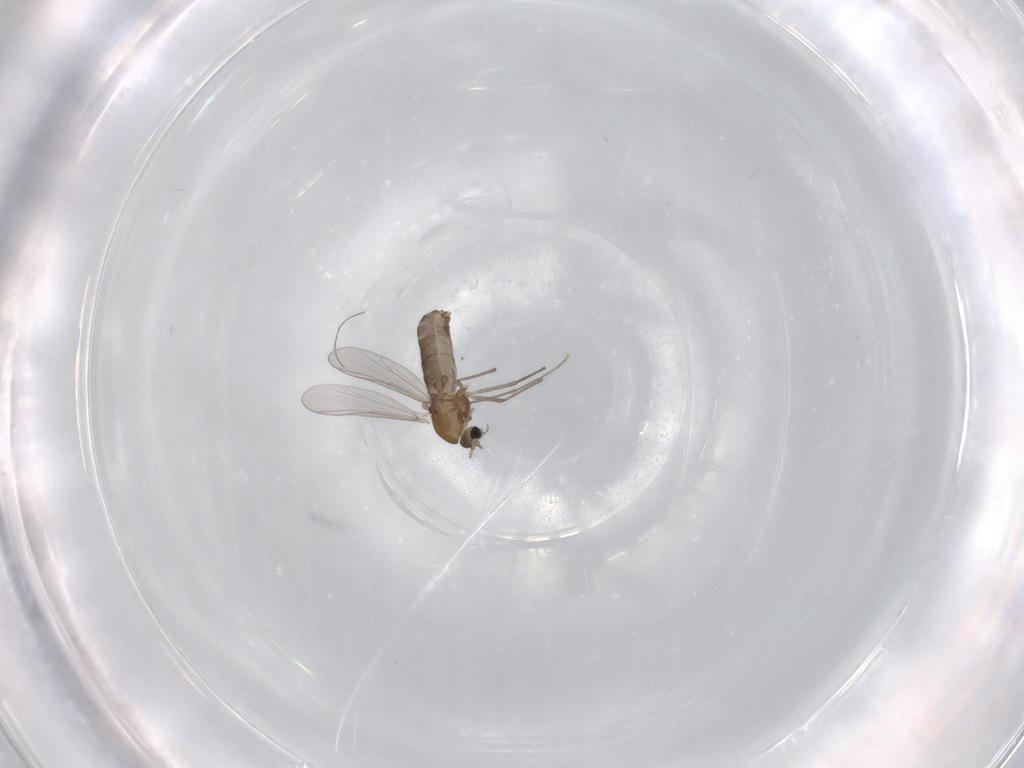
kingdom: Animalia
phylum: Arthropoda
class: Insecta
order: Diptera
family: Chironomidae
